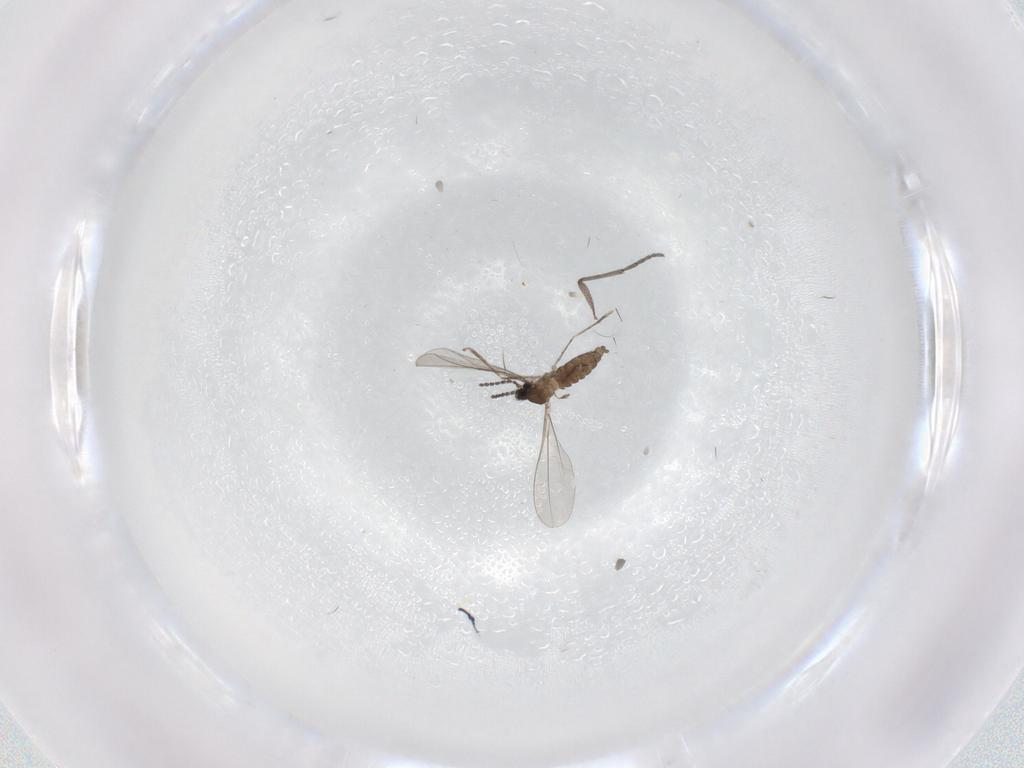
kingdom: Animalia
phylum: Arthropoda
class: Insecta
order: Diptera
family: Cecidomyiidae
